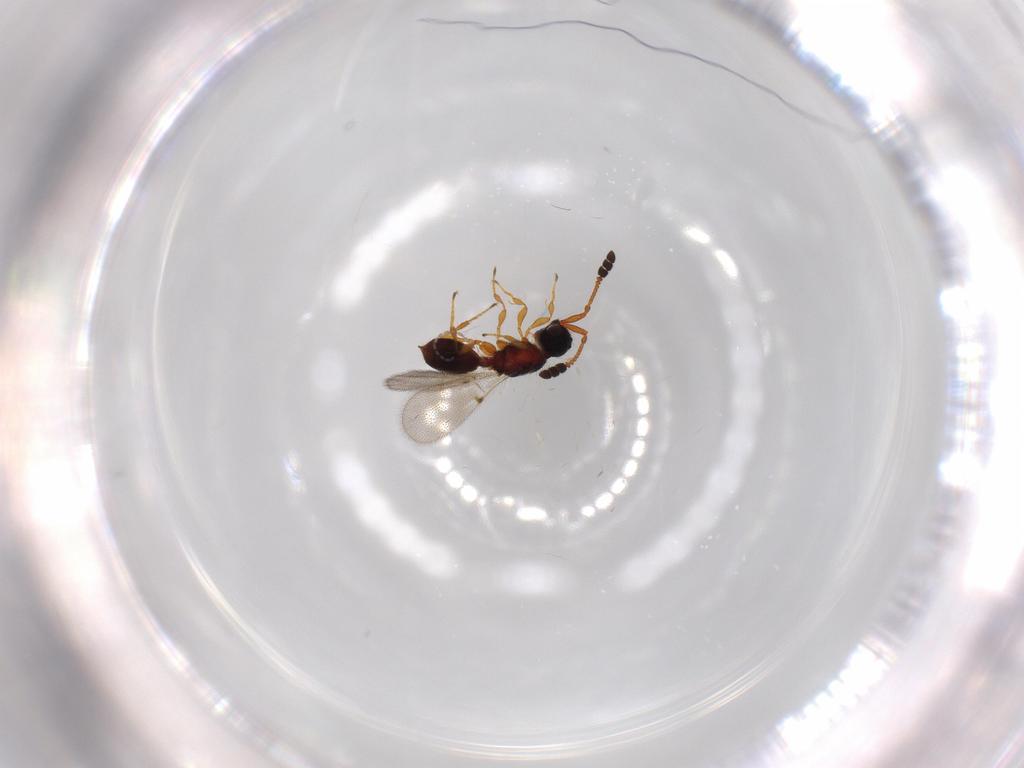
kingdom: Animalia
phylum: Arthropoda
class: Insecta
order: Hymenoptera
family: Diapriidae
